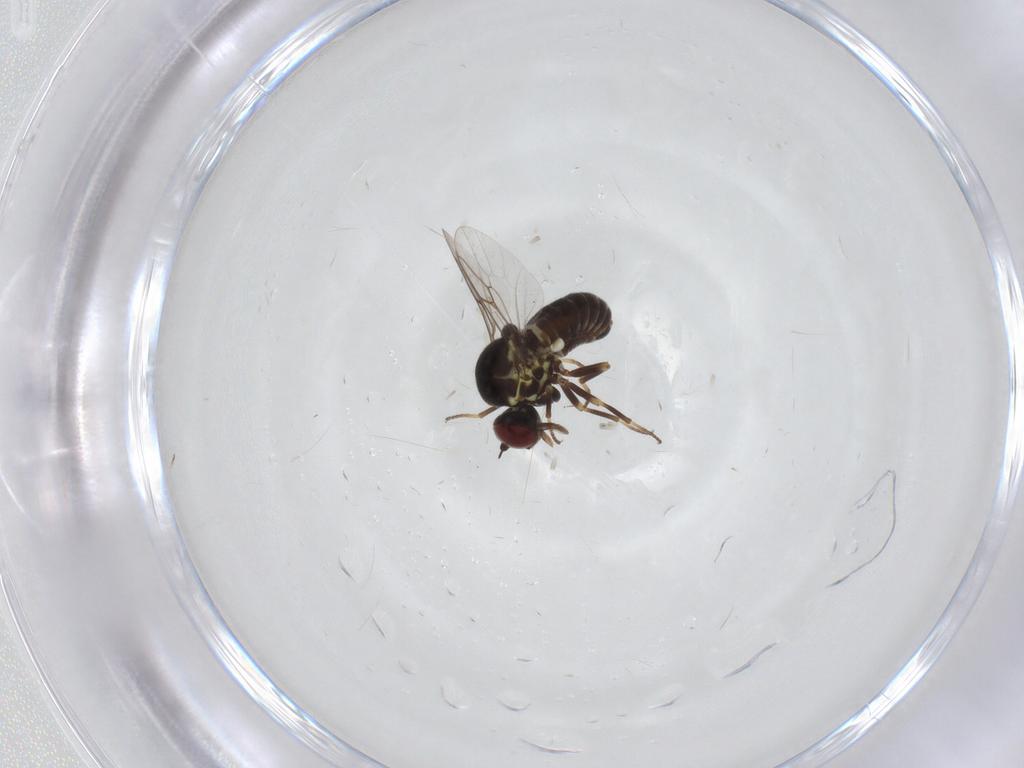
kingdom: Animalia
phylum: Arthropoda
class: Insecta
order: Diptera
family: Mythicomyiidae
